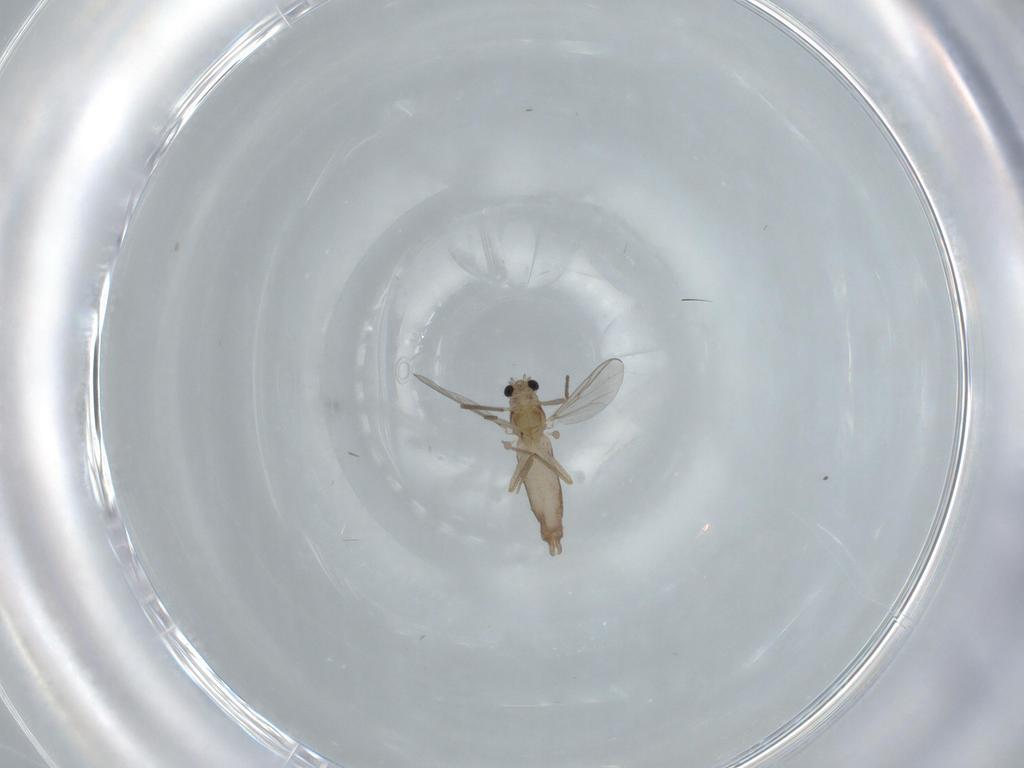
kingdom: Animalia
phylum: Arthropoda
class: Insecta
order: Diptera
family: Chironomidae
